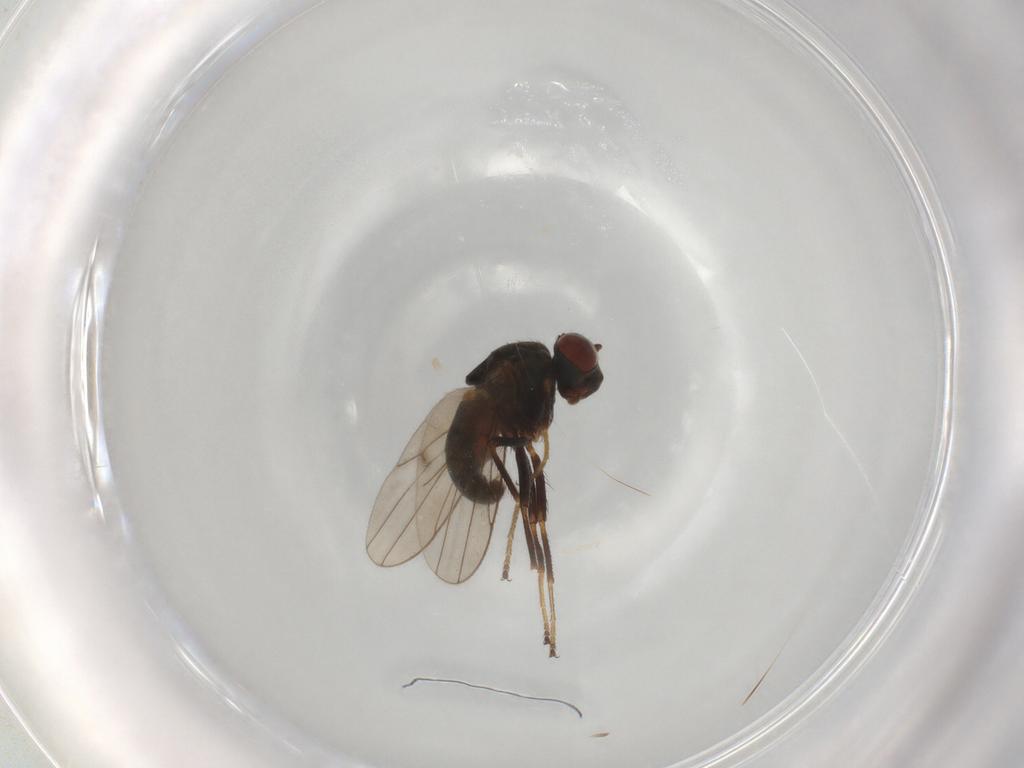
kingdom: Animalia
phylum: Arthropoda
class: Insecta
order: Diptera
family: Ephydridae
